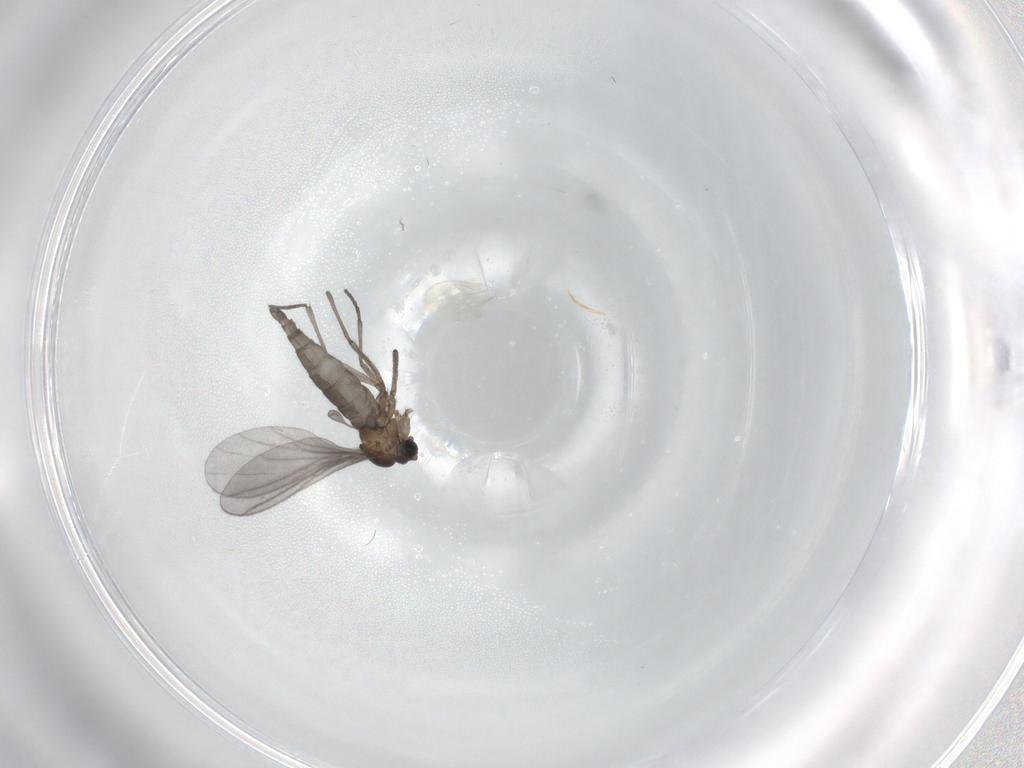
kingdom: Animalia
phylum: Arthropoda
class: Insecta
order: Diptera
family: Sciaridae
